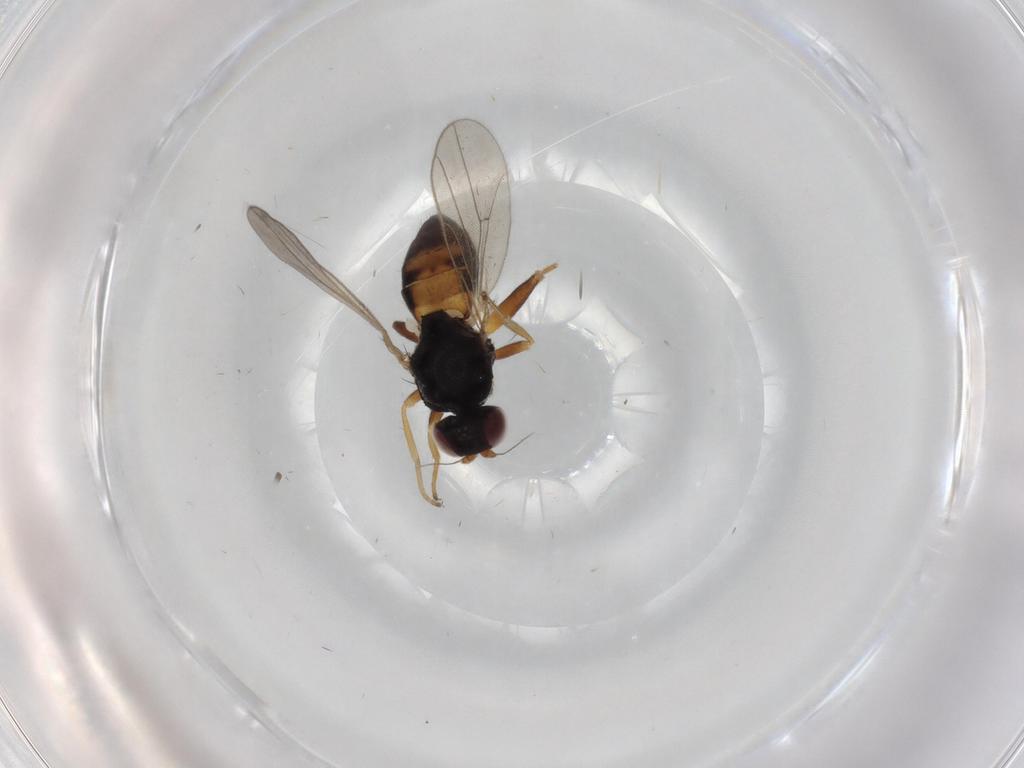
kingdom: Animalia
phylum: Arthropoda
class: Insecta
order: Diptera
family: Chloropidae
